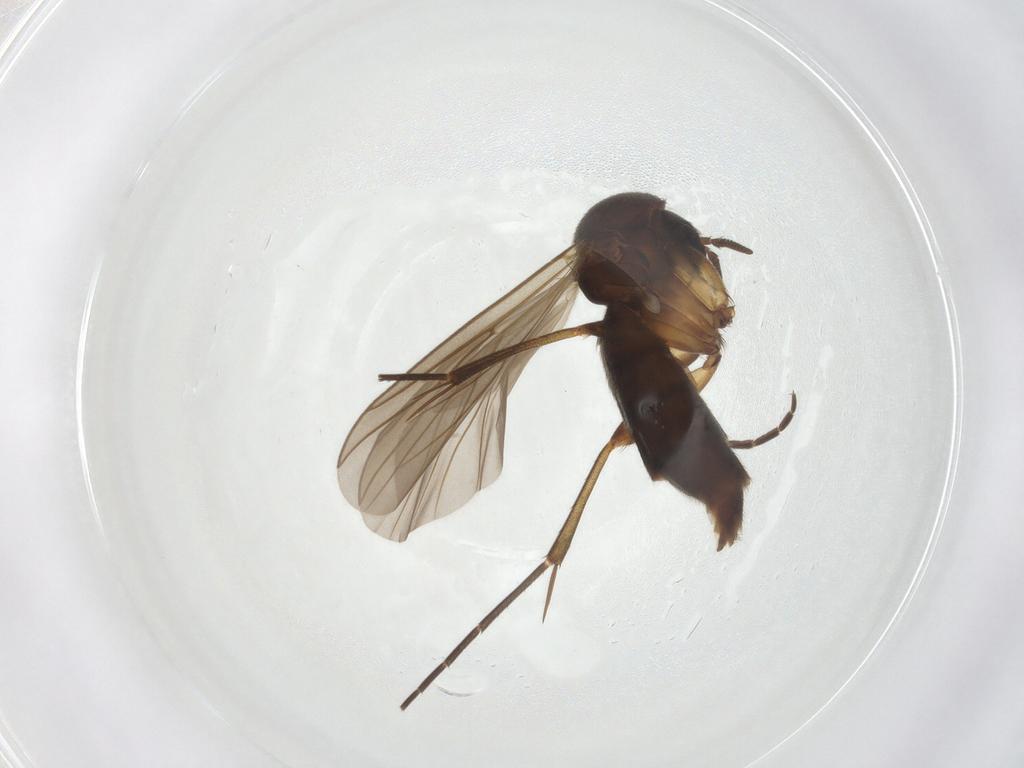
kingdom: Animalia
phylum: Arthropoda
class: Insecta
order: Diptera
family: Mycetophilidae
